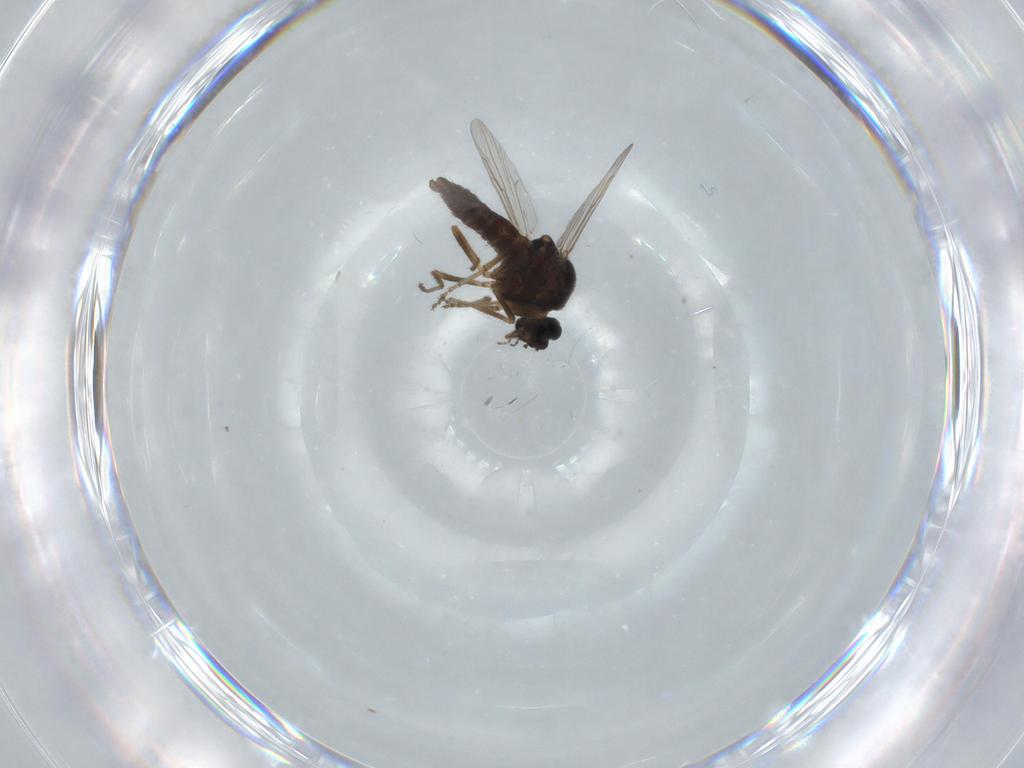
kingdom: Animalia
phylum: Arthropoda
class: Insecta
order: Diptera
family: Ceratopogonidae
